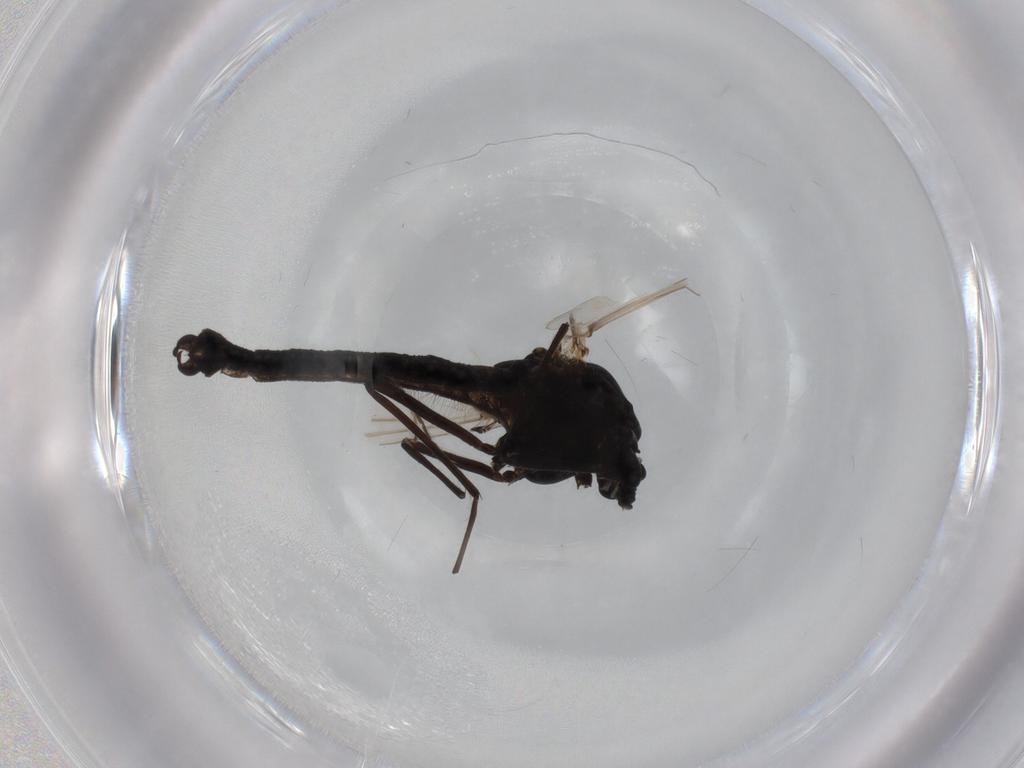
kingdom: Animalia
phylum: Arthropoda
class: Insecta
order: Diptera
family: Chironomidae
